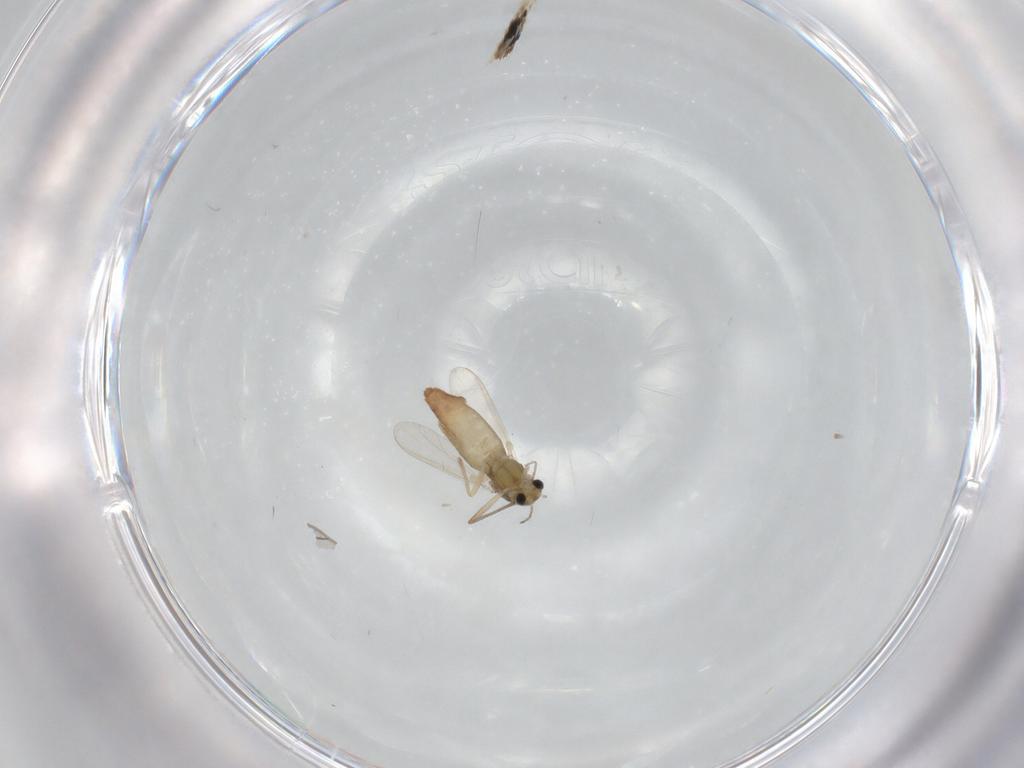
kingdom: Animalia
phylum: Arthropoda
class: Insecta
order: Diptera
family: Chironomidae
